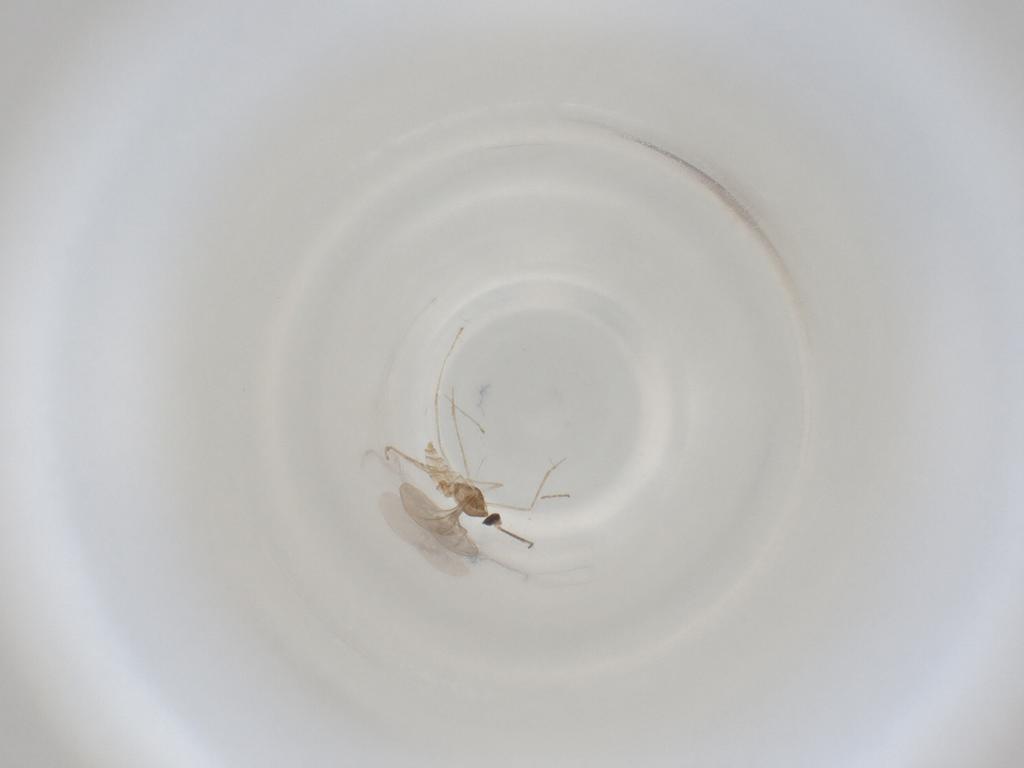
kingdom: Animalia
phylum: Arthropoda
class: Insecta
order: Diptera
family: Cecidomyiidae
